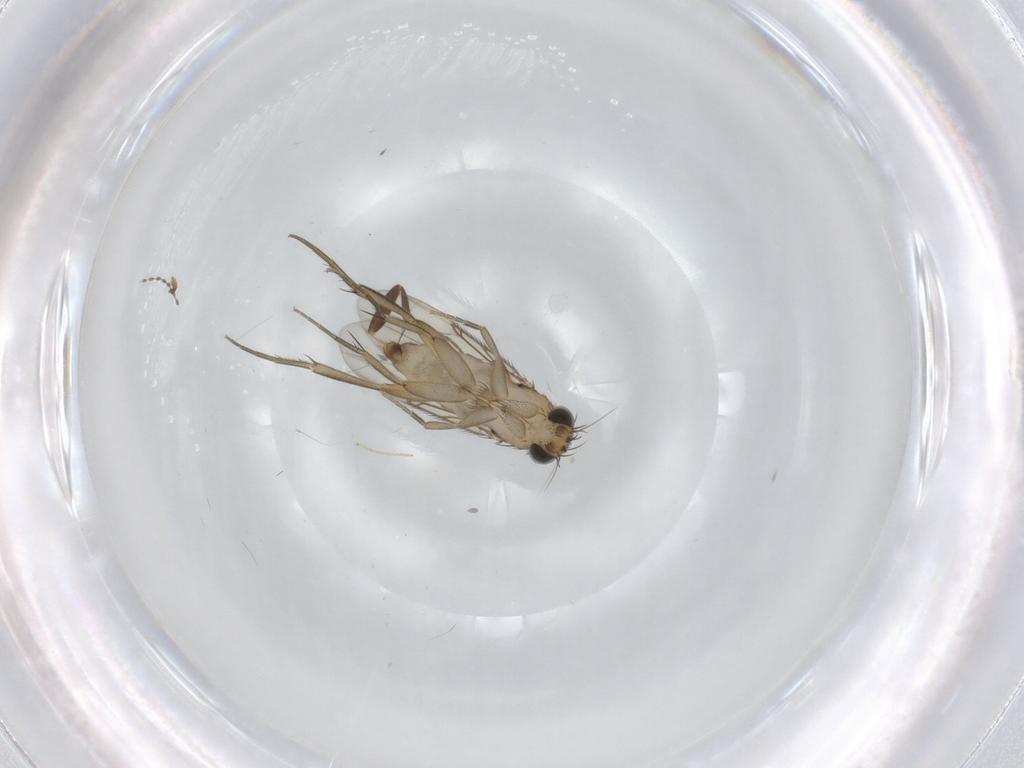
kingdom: Animalia
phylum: Arthropoda
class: Insecta
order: Diptera
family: Phoridae
